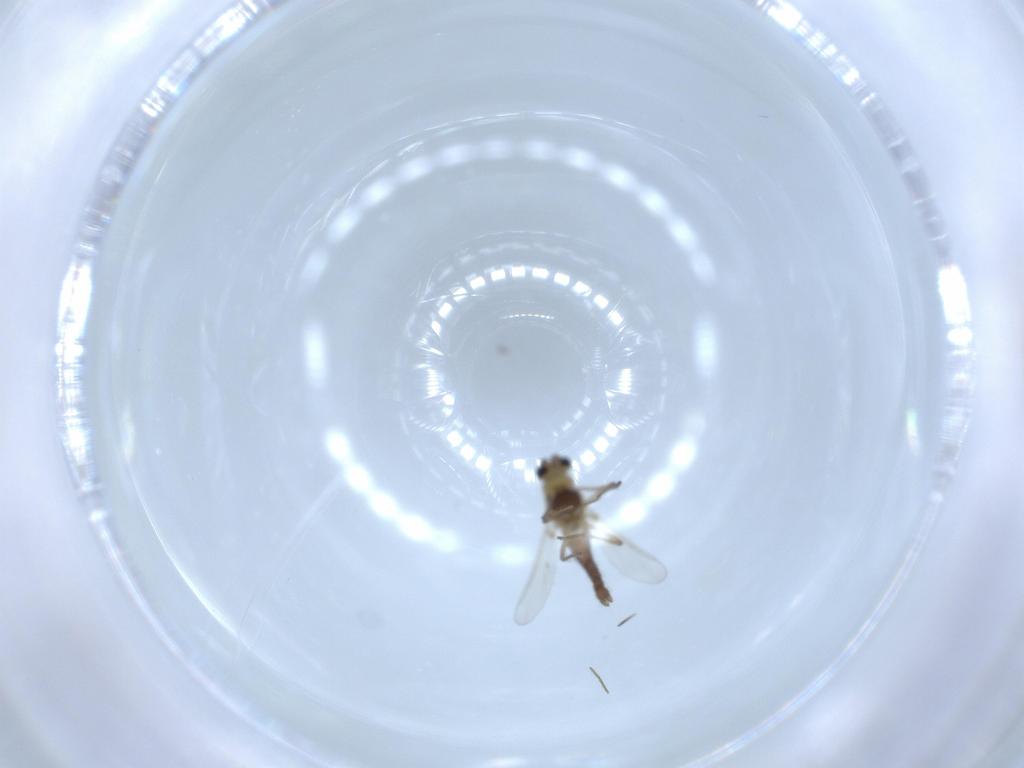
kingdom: Animalia
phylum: Arthropoda
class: Insecta
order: Diptera
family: Chironomidae
